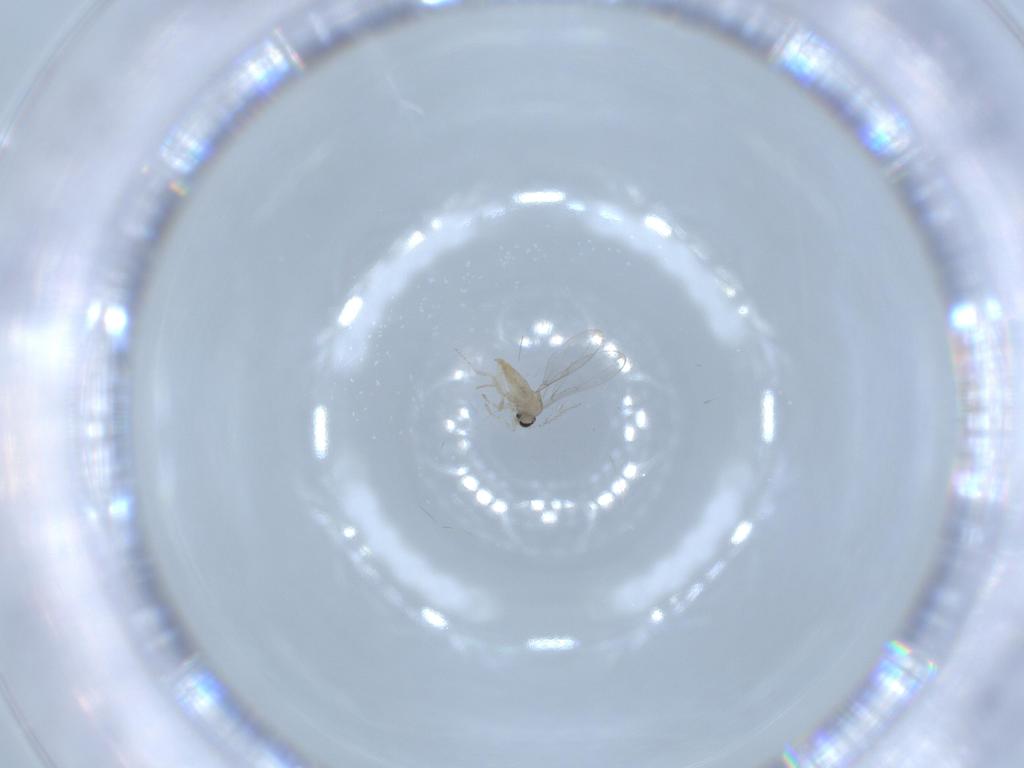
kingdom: Animalia
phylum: Arthropoda
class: Insecta
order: Diptera
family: Cecidomyiidae
